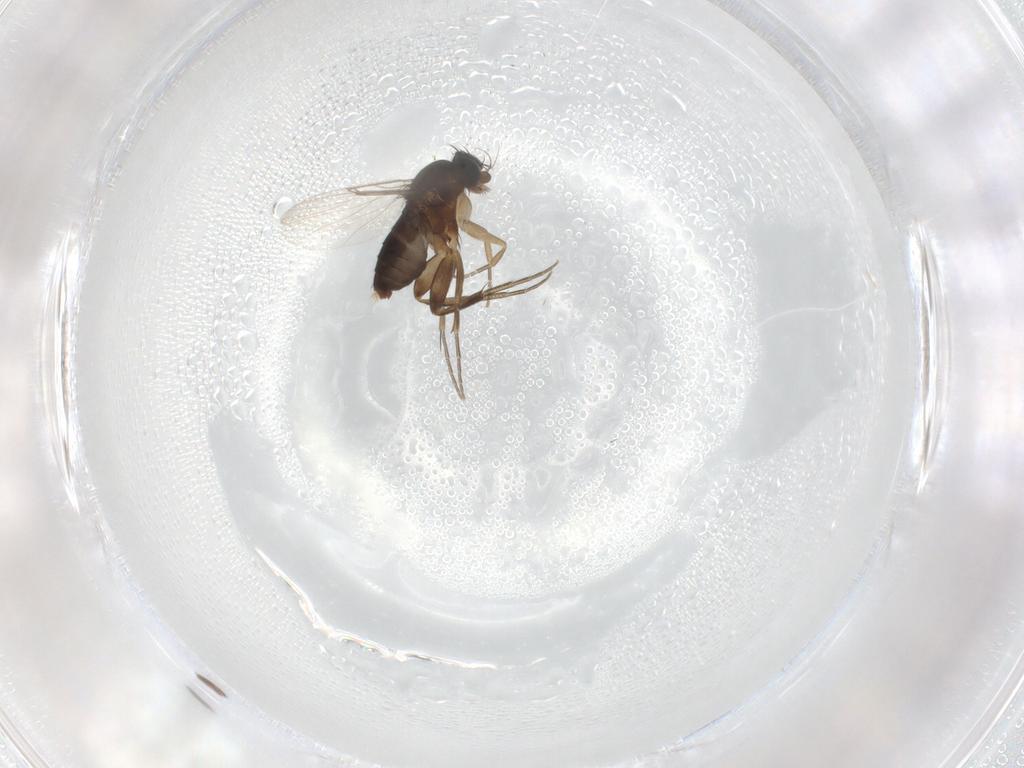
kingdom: Animalia
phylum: Arthropoda
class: Insecta
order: Diptera
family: Phoridae
